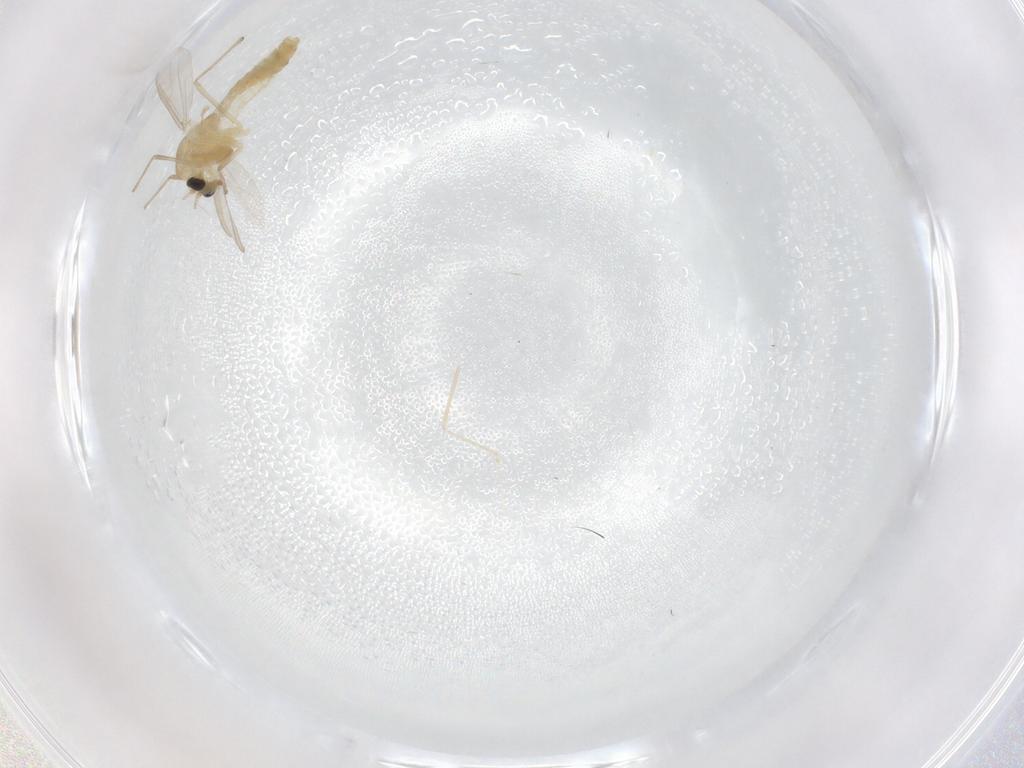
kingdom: Animalia
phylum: Arthropoda
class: Insecta
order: Diptera
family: Chironomidae
